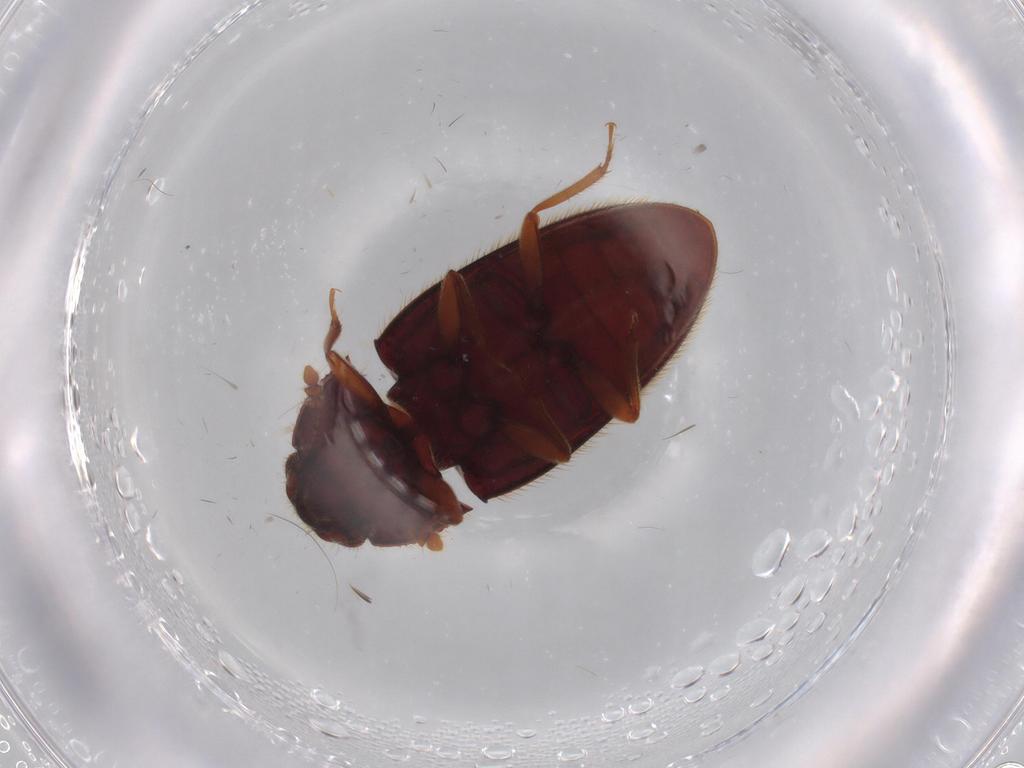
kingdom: Animalia
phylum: Arthropoda
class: Insecta
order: Coleoptera
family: Biphyllidae
